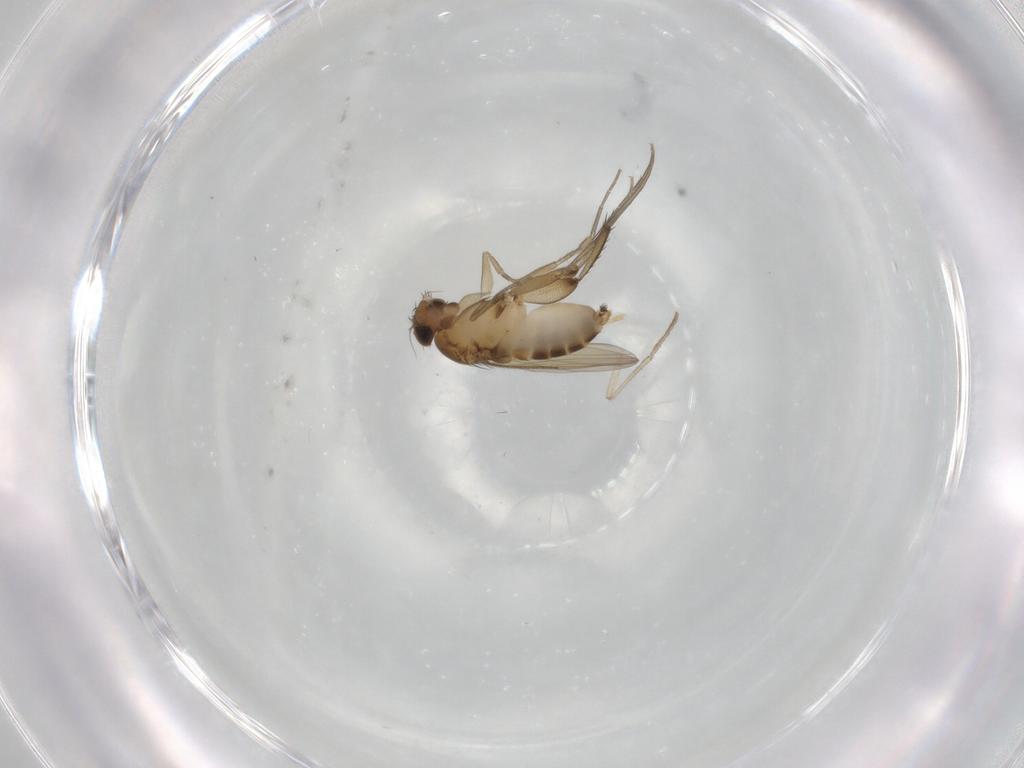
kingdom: Animalia
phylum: Arthropoda
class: Insecta
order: Diptera
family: Phoridae
